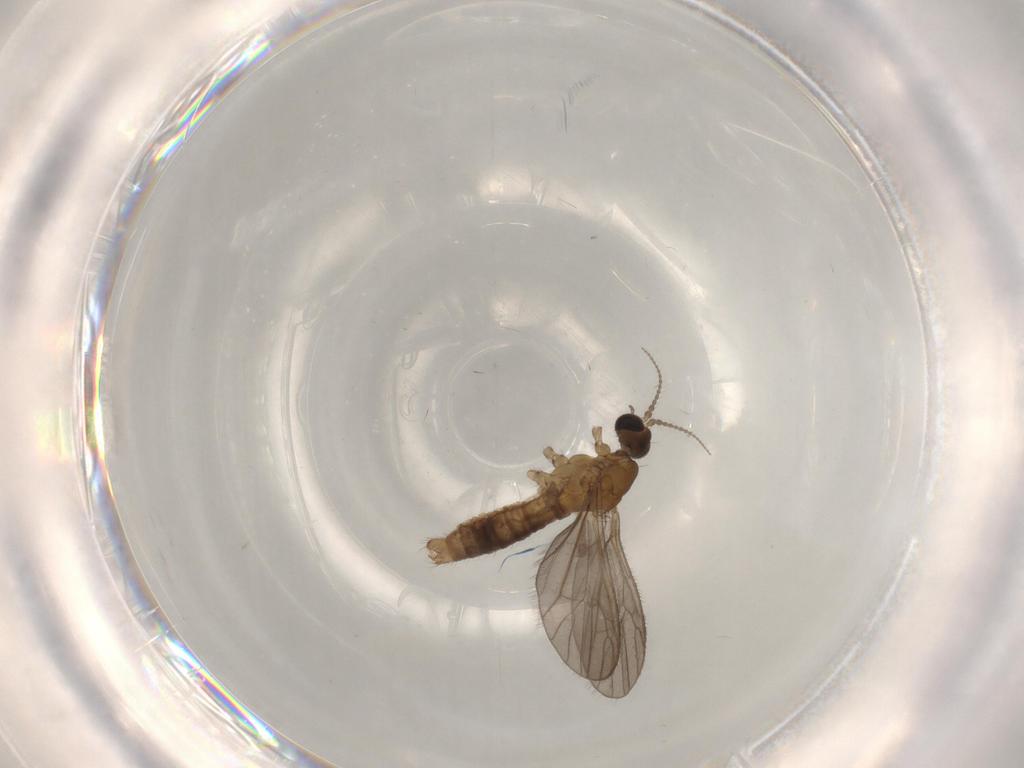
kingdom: Animalia
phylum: Arthropoda
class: Insecta
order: Diptera
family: Limoniidae
